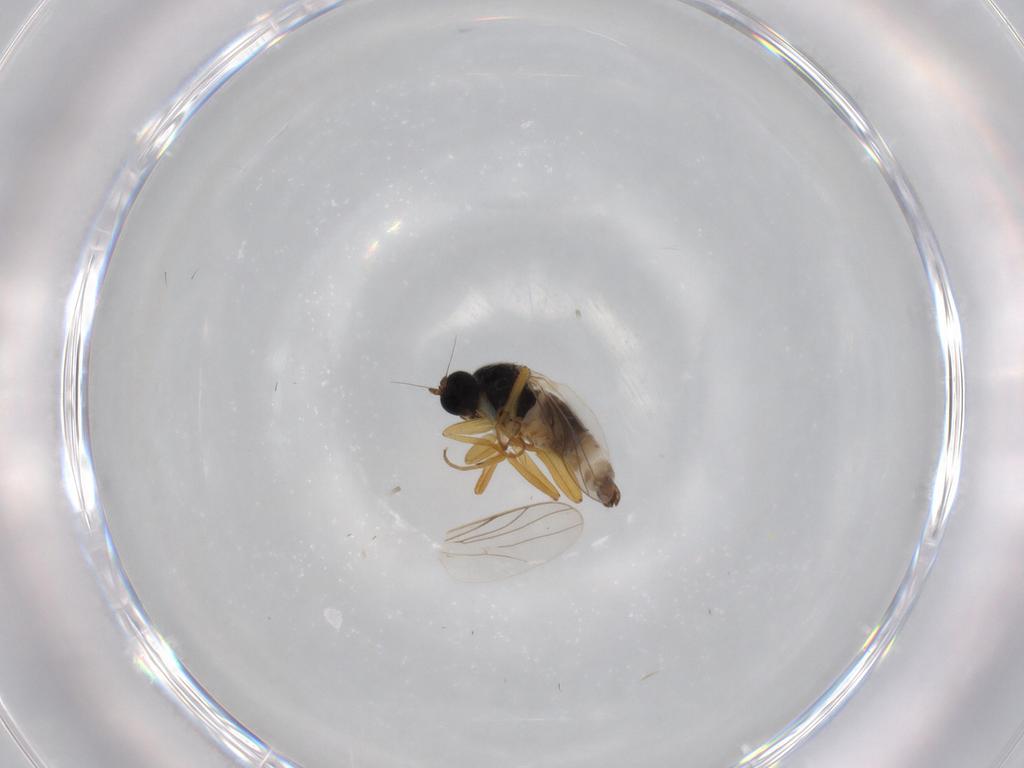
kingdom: Animalia
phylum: Arthropoda
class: Insecta
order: Diptera
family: Hybotidae
